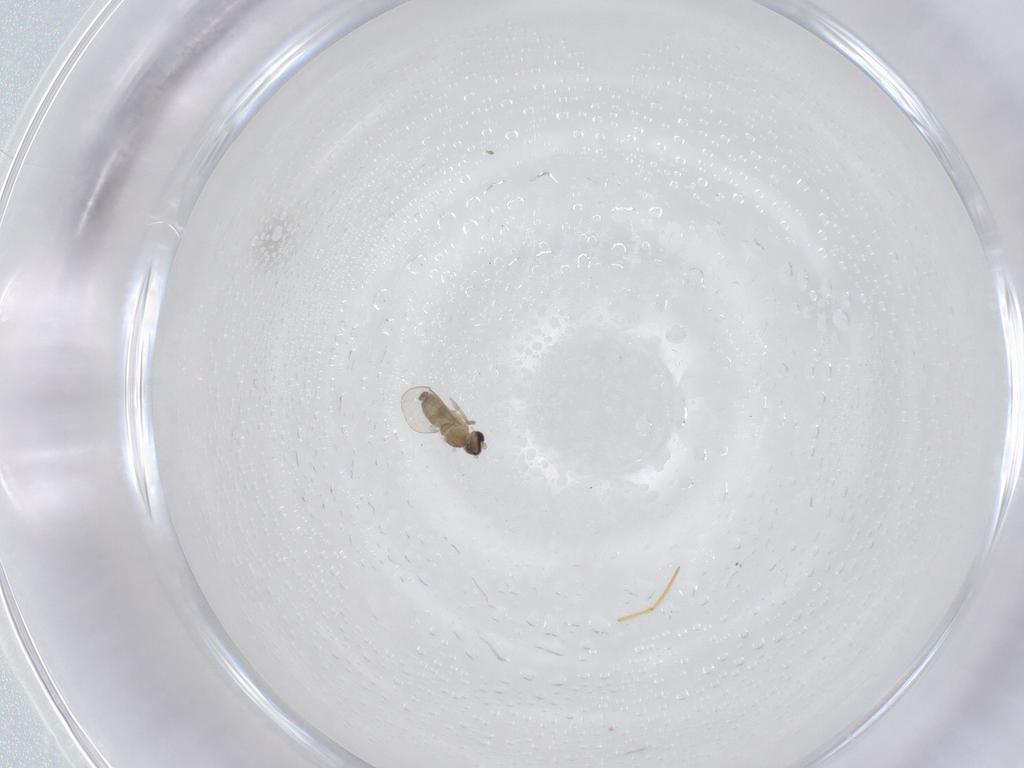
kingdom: Animalia
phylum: Arthropoda
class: Insecta
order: Diptera
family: Cecidomyiidae
